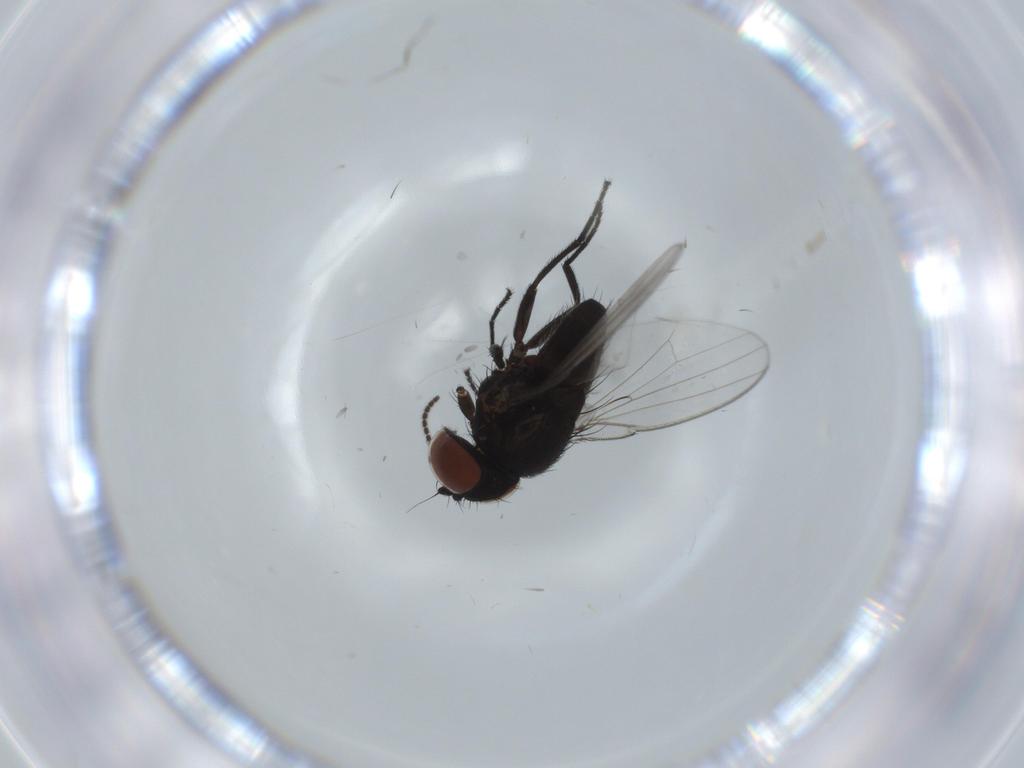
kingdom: Animalia
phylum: Arthropoda
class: Insecta
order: Diptera
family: Milichiidae
